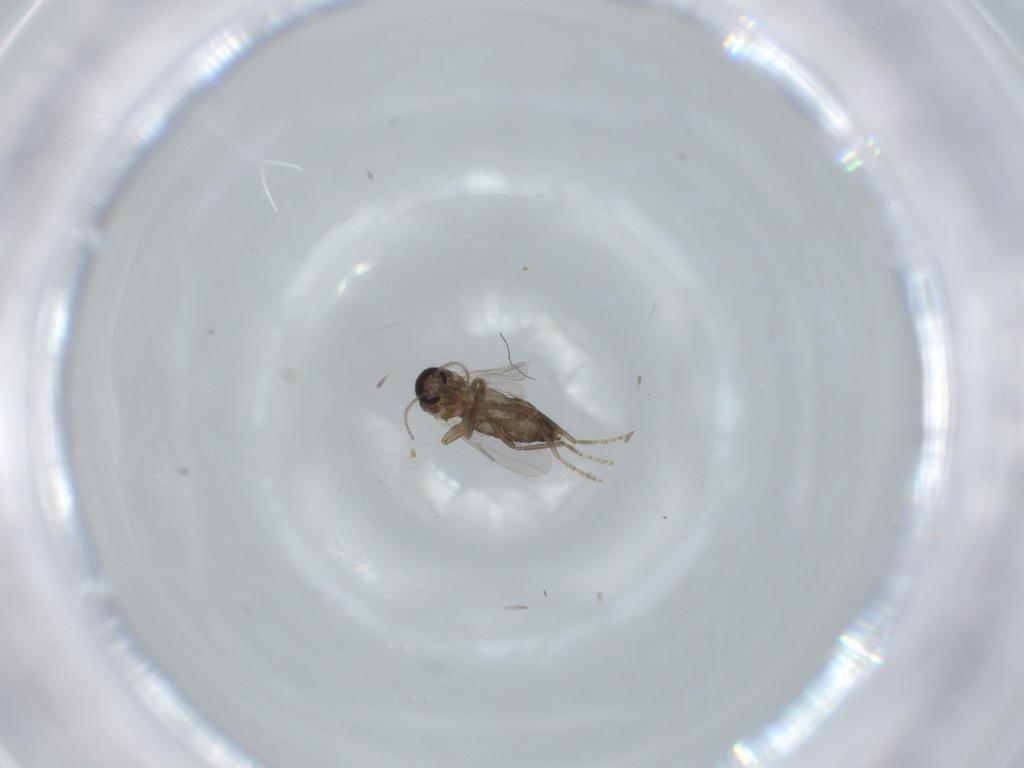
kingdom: Animalia
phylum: Arthropoda
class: Insecta
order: Diptera
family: Ceratopogonidae
